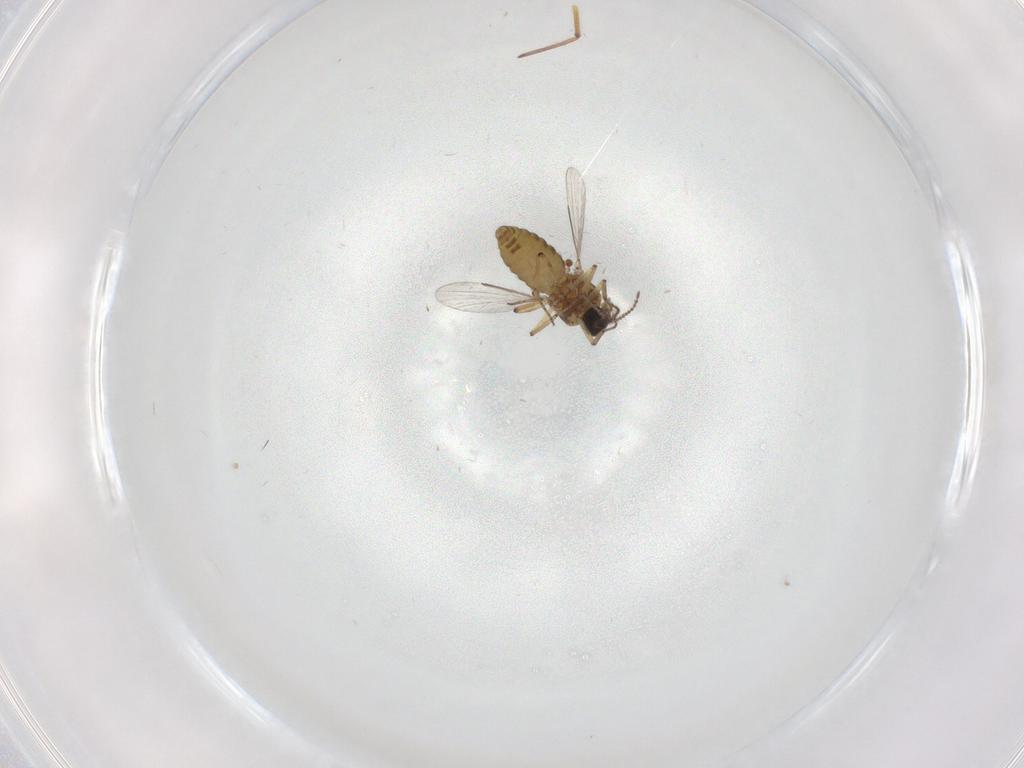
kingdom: Animalia
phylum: Arthropoda
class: Insecta
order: Diptera
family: Ceratopogonidae
